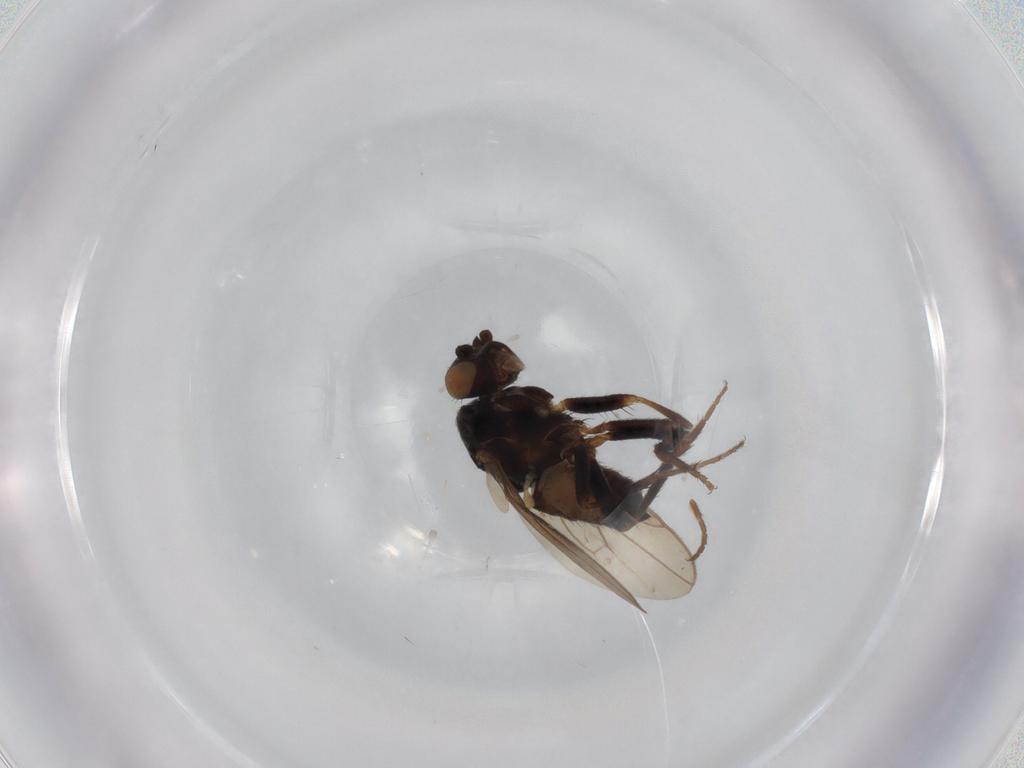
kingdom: Animalia
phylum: Arthropoda
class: Insecta
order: Diptera
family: Sphaeroceridae
